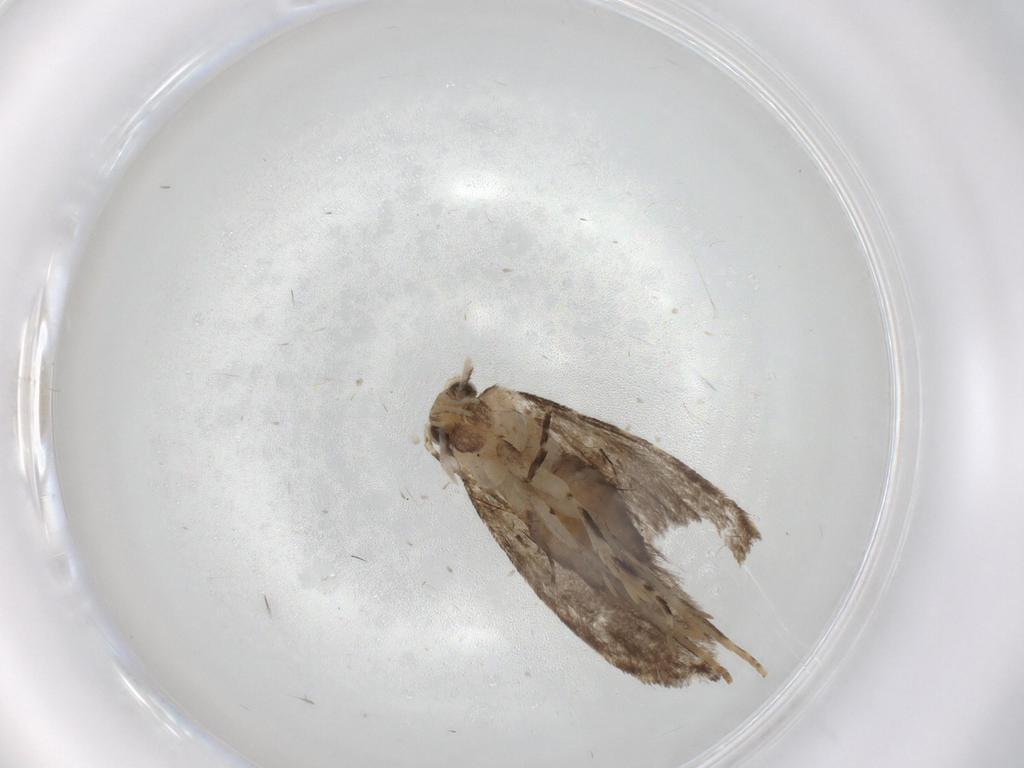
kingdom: Animalia
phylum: Arthropoda
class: Insecta
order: Lepidoptera
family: Tineidae
